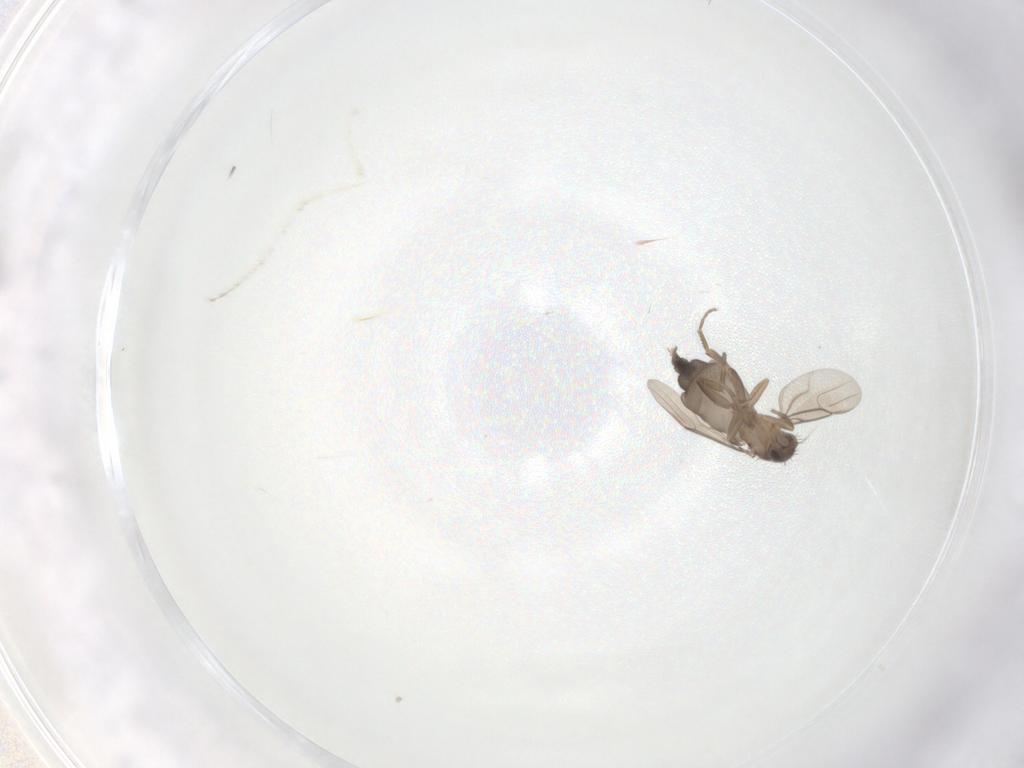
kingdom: Animalia
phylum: Arthropoda
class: Insecta
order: Diptera
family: Phoridae
